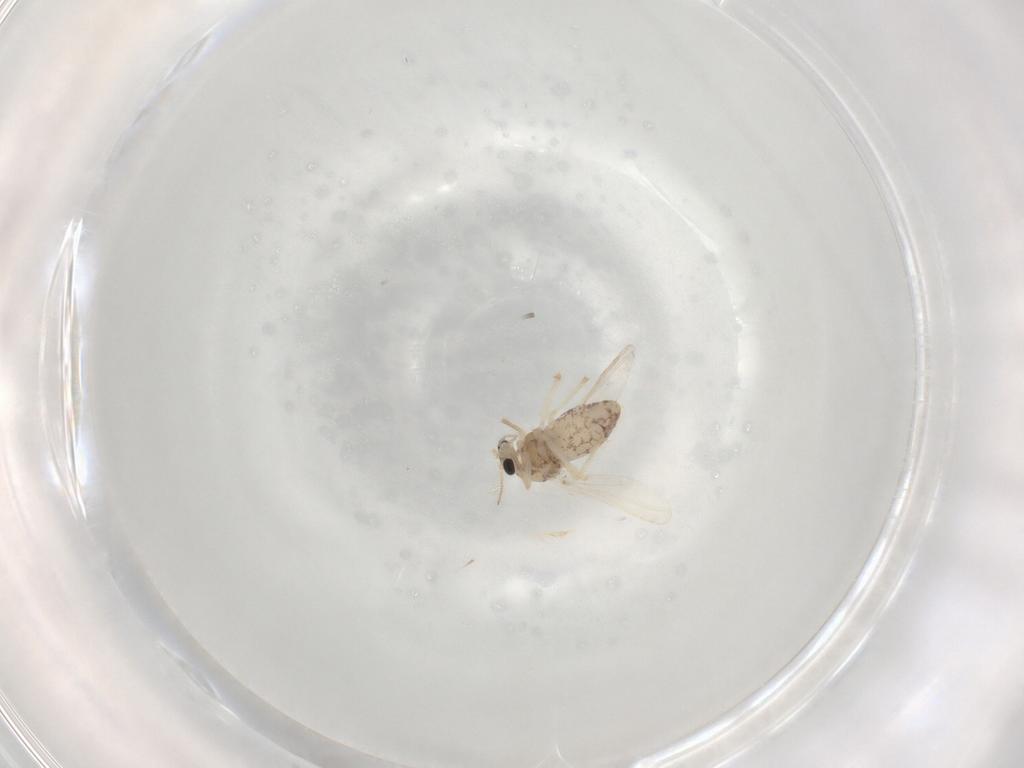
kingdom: Animalia
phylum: Arthropoda
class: Insecta
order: Diptera
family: Chironomidae
